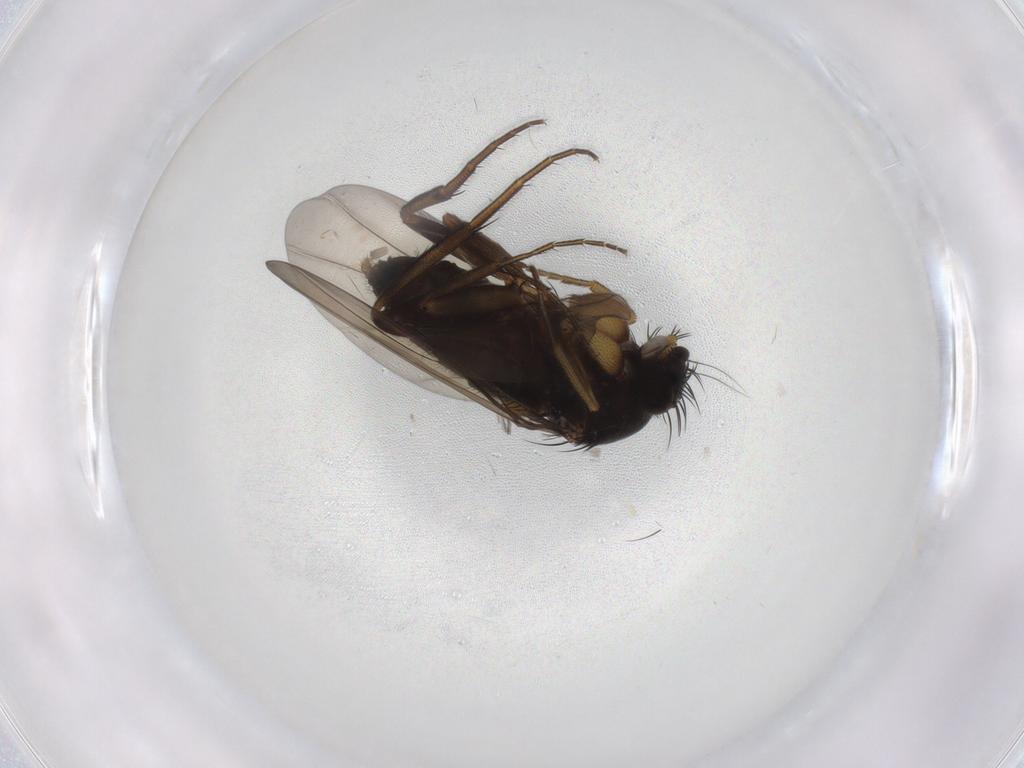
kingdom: Animalia
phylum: Arthropoda
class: Insecta
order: Diptera
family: Phoridae
